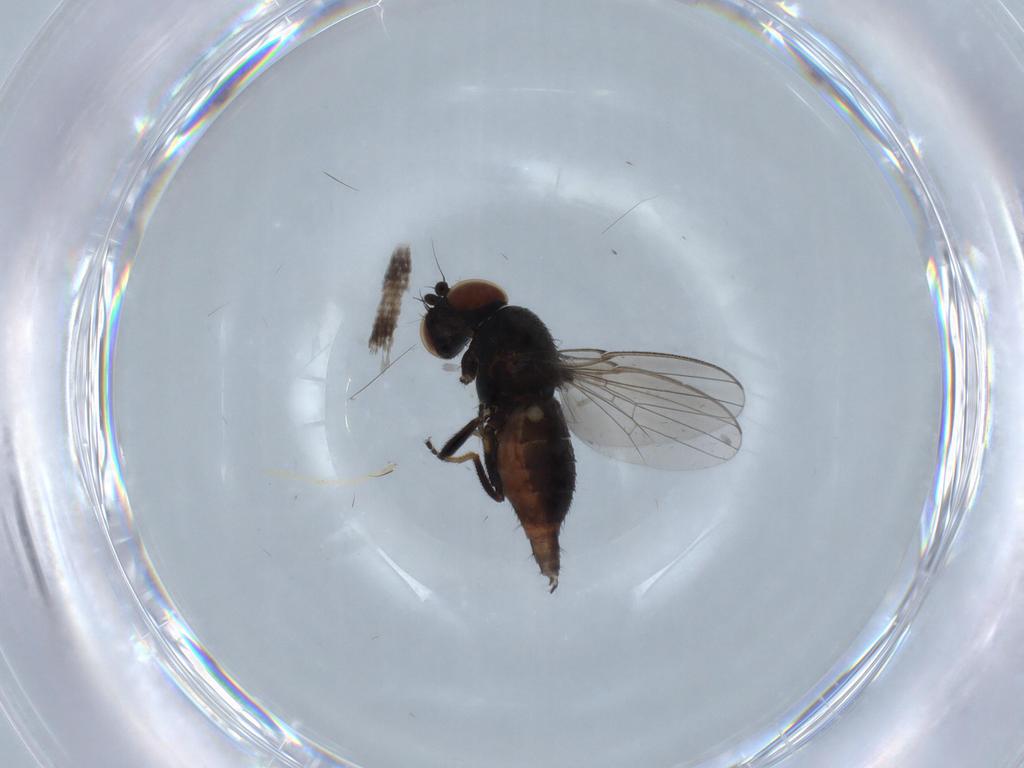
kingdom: Animalia
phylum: Arthropoda
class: Insecta
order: Diptera
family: Milichiidae
